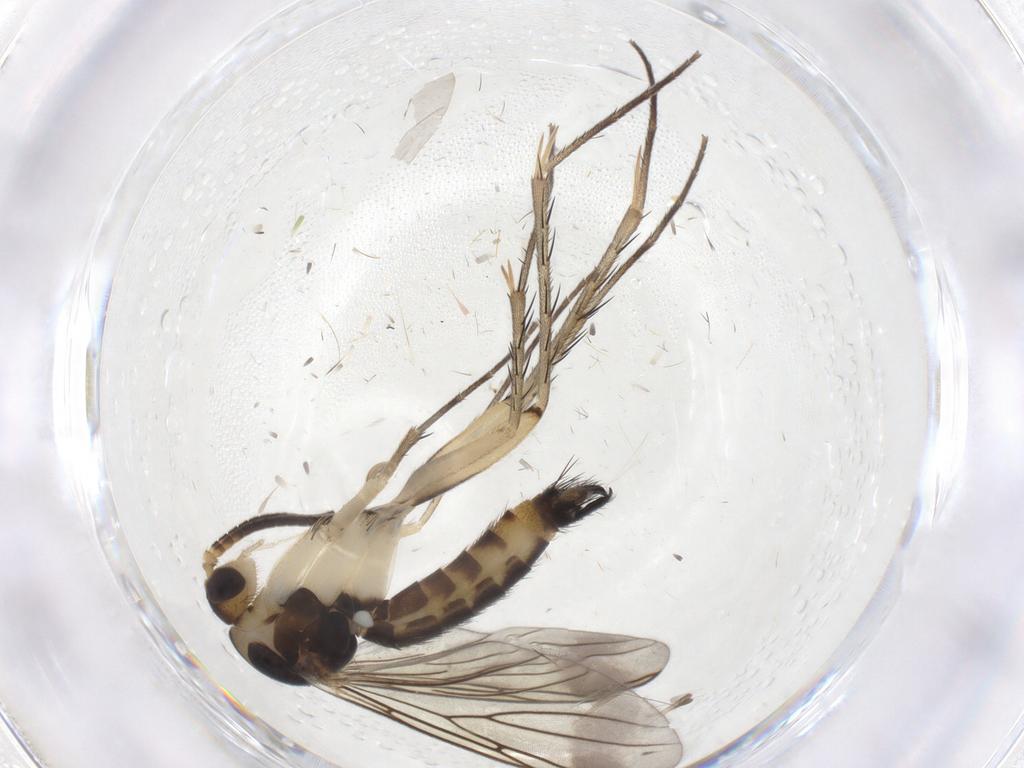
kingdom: Animalia
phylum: Arthropoda
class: Insecta
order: Diptera
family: Mycetophilidae
